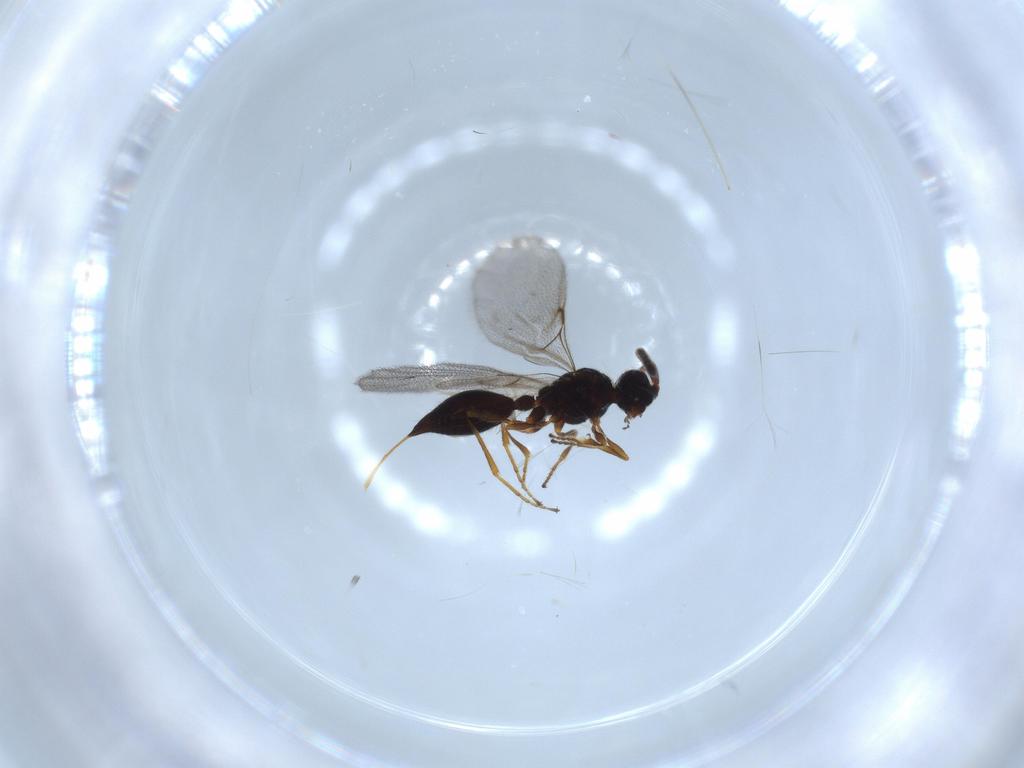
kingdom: Animalia
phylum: Arthropoda
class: Insecta
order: Hymenoptera
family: Diapriidae
